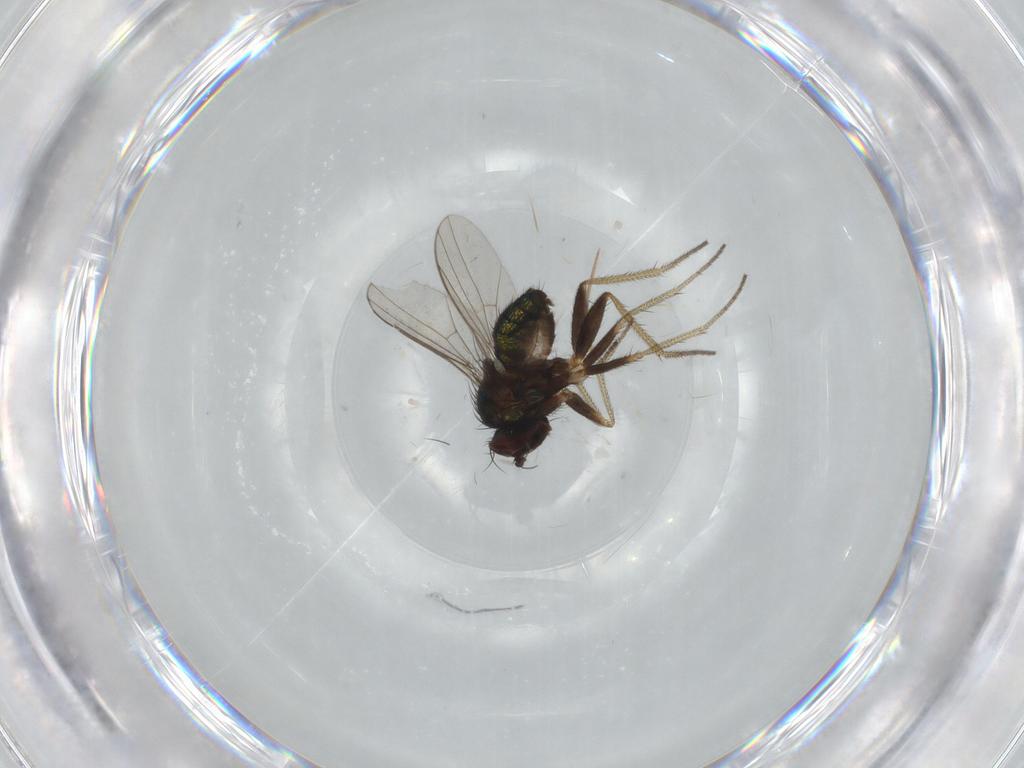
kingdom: Animalia
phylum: Arthropoda
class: Insecta
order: Diptera
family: Dolichopodidae
